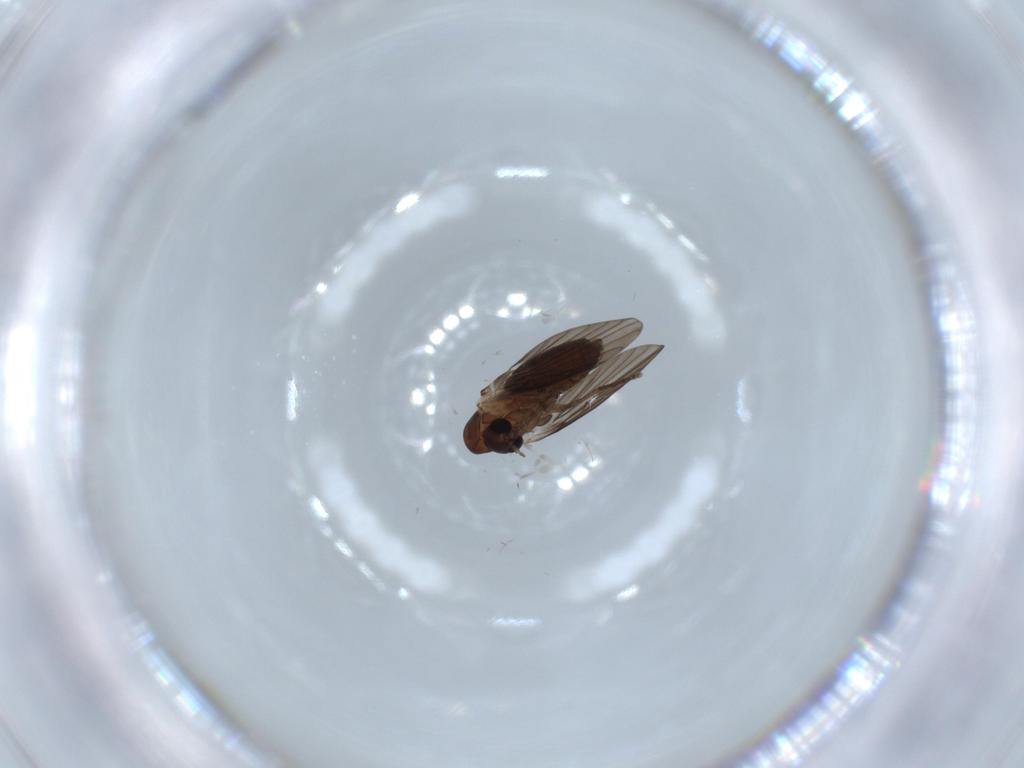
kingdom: Animalia
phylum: Arthropoda
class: Insecta
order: Diptera
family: Psychodidae
